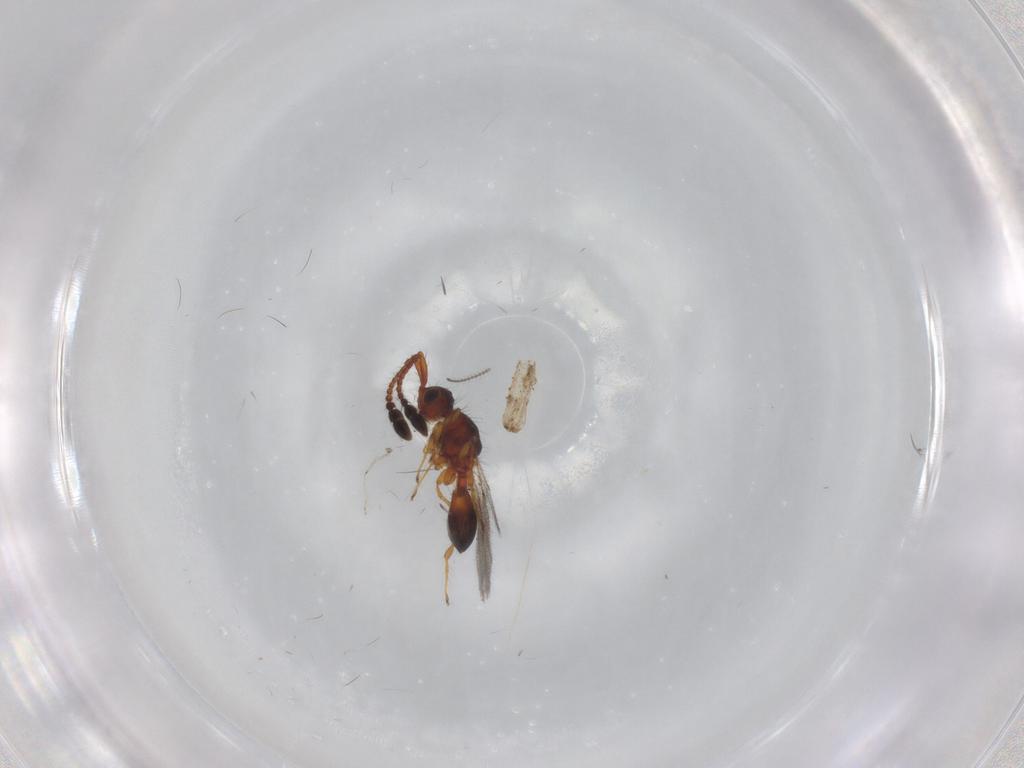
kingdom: Animalia
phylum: Arthropoda
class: Insecta
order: Hymenoptera
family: Diapriidae
